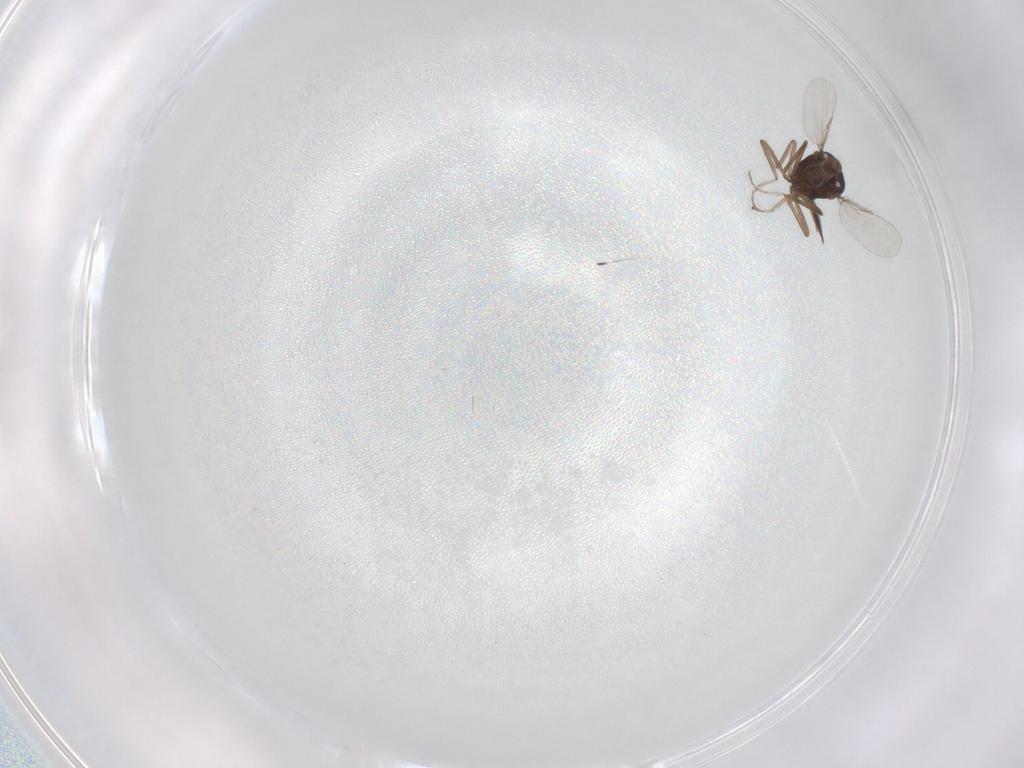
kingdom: Animalia
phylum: Arthropoda
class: Insecta
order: Diptera
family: Ceratopogonidae
